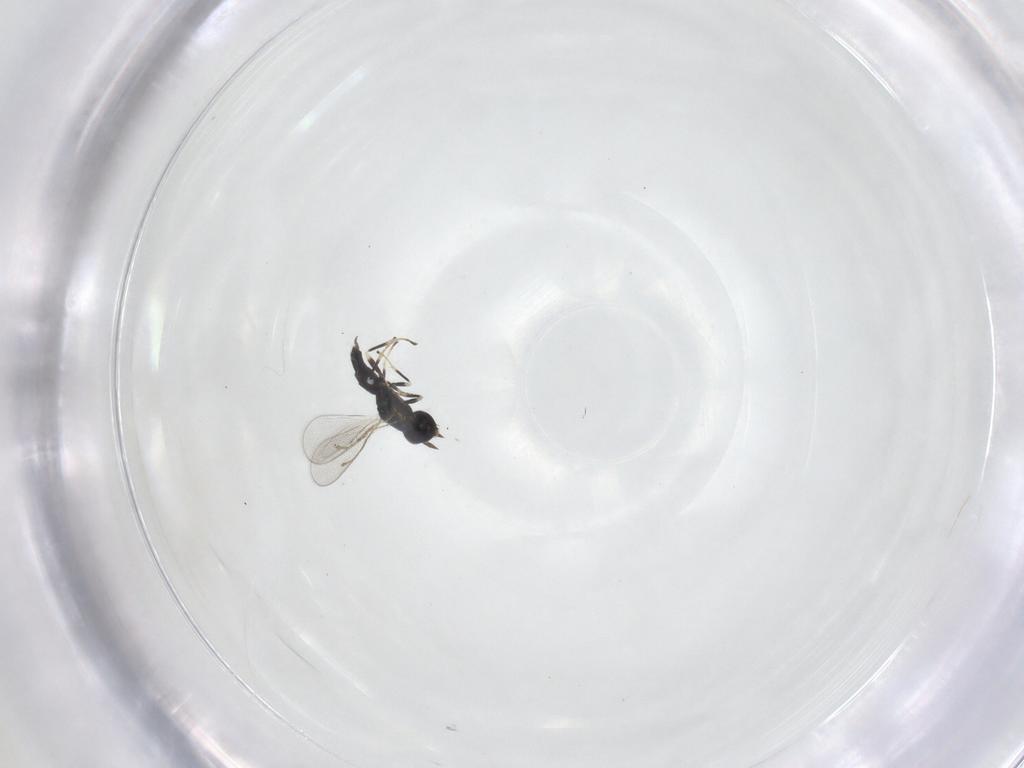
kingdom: Animalia
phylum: Arthropoda
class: Insecta
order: Hymenoptera
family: Eulophidae
